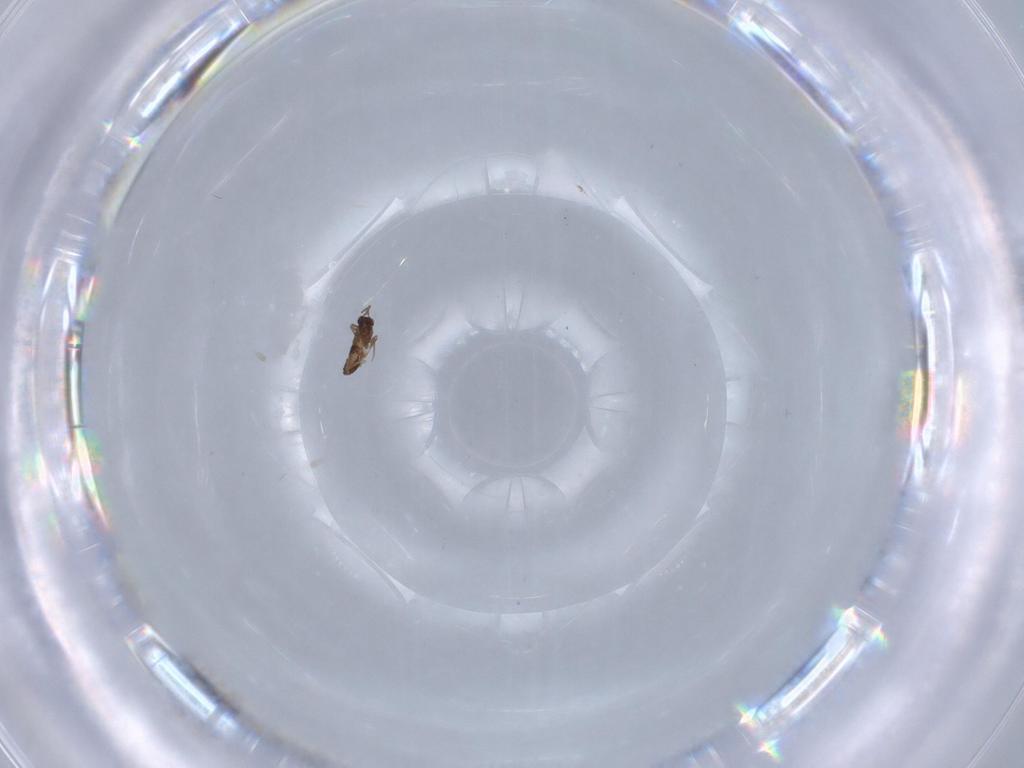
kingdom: Animalia
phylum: Arthropoda
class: Insecta
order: Hymenoptera
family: Mymaridae
